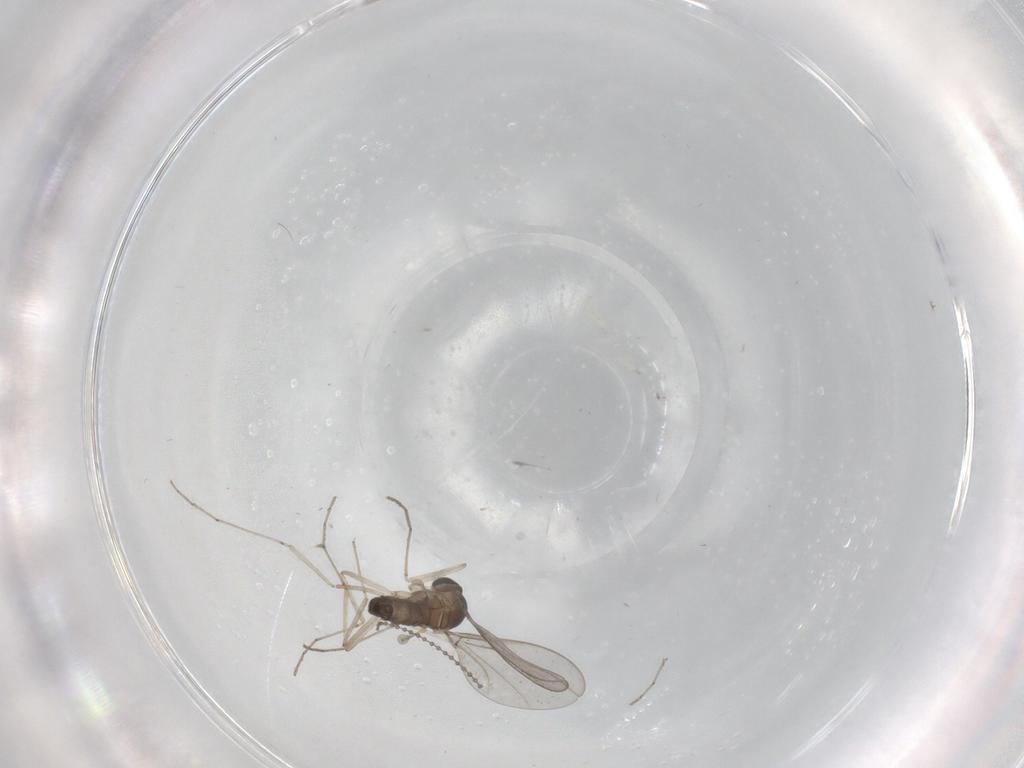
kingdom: Animalia
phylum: Arthropoda
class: Insecta
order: Diptera
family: Cecidomyiidae
